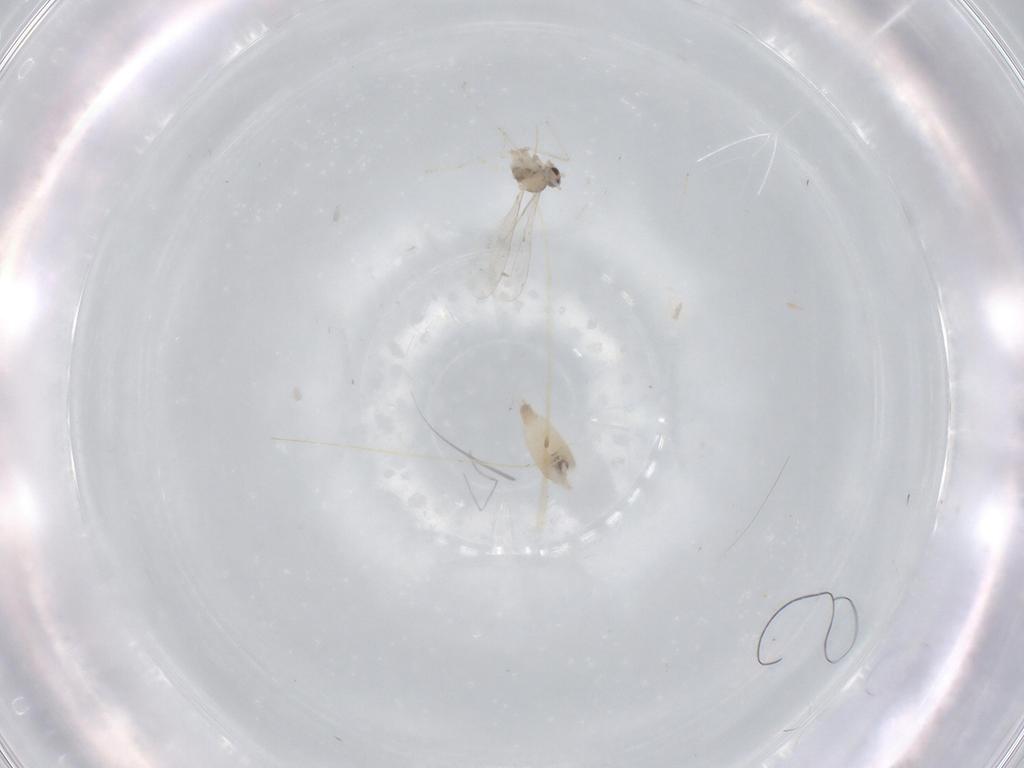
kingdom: Animalia
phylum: Arthropoda
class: Insecta
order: Diptera
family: Cecidomyiidae
